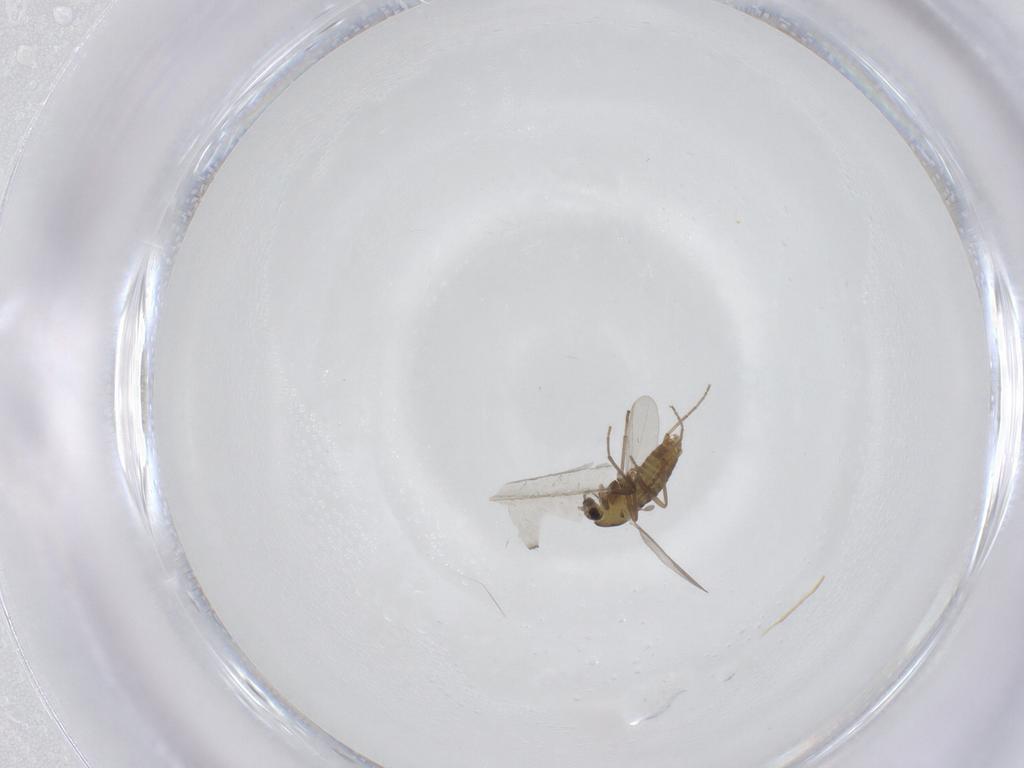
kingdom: Animalia
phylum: Arthropoda
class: Insecta
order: Diptera
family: Chironomidae
